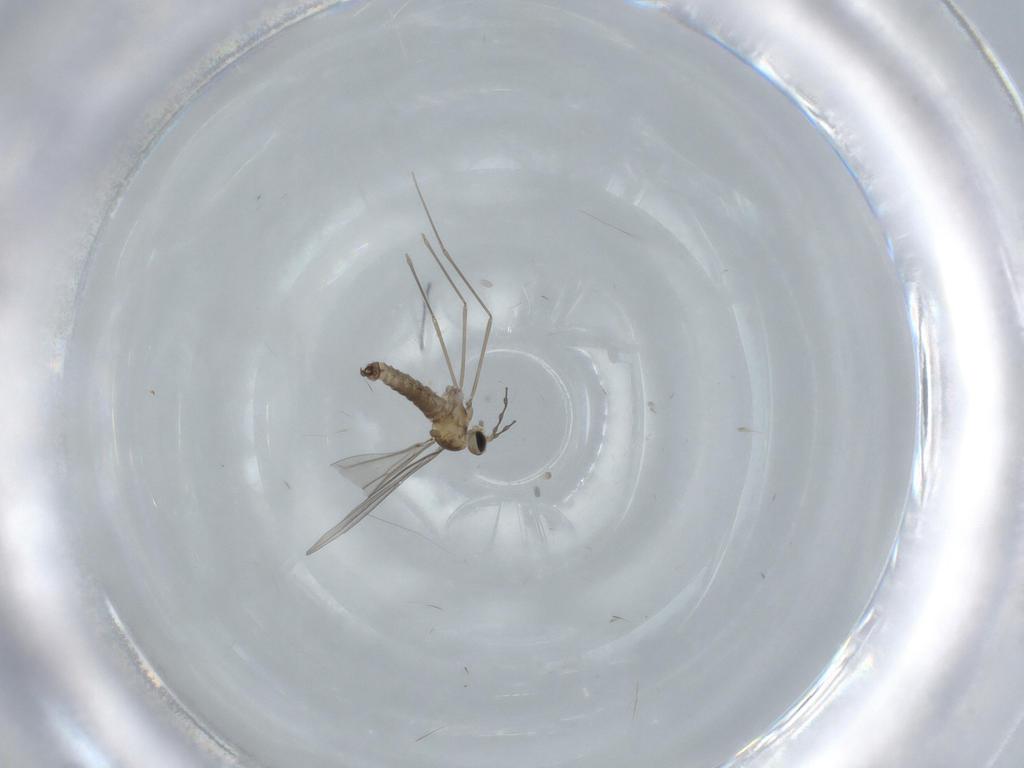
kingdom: Animalia
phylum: Arthropoda
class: Insecta
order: Diptera
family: Cecidomyiidae
